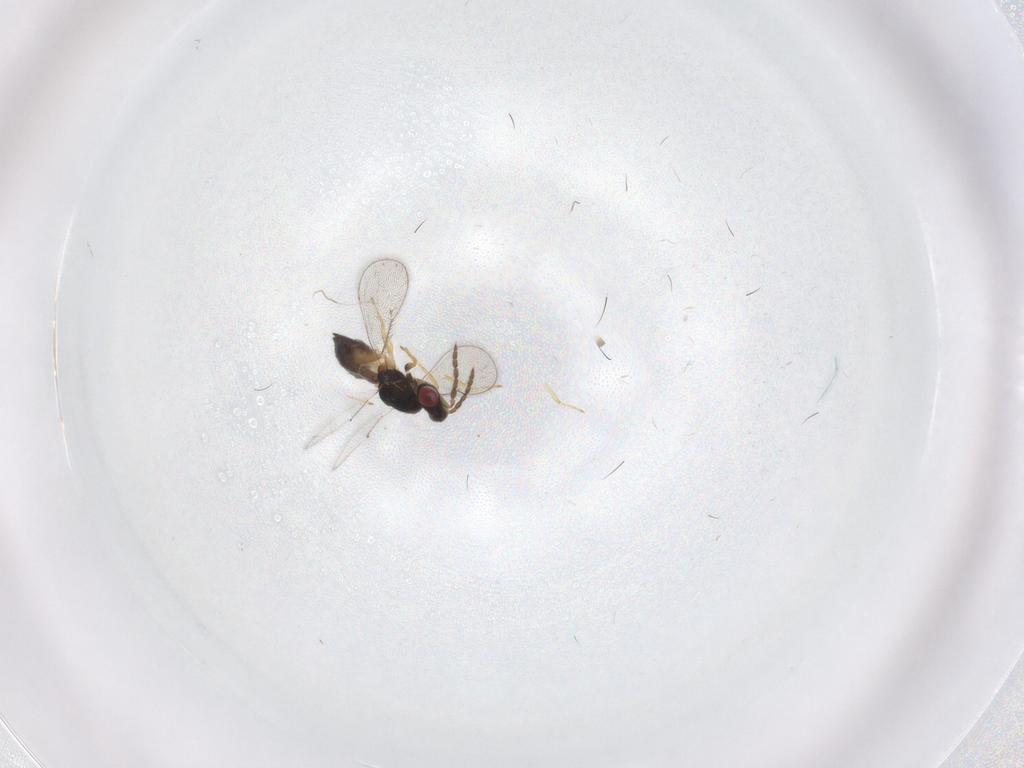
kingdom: Animalia
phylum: Arthropoda
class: Insecta
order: Hymenoptera
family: Eulophidae
